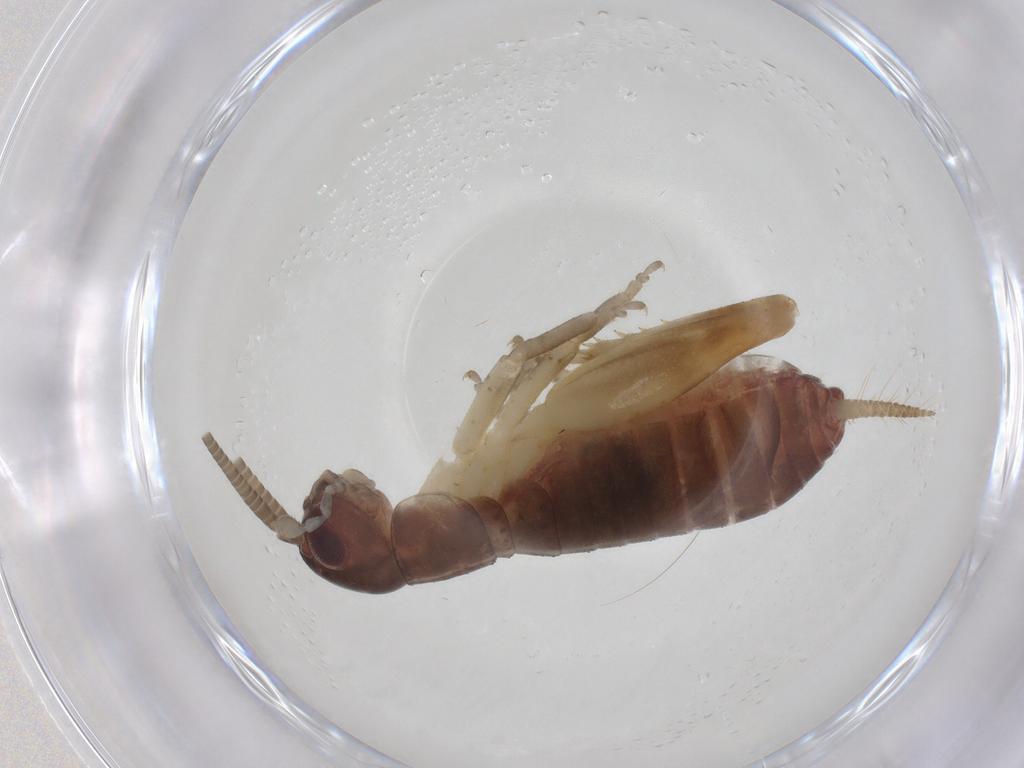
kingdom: Animalia
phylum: Arthropoda
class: Insecta
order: Orthoptera
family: Gryllidae
